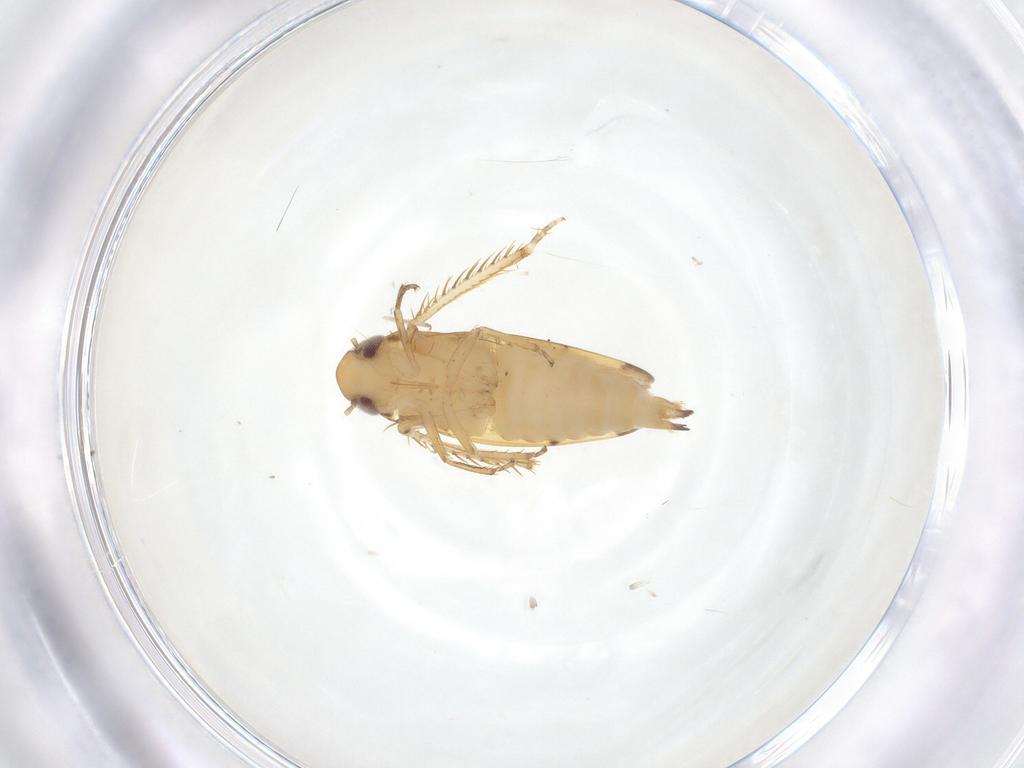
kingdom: Animalia
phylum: Arthropoda
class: Insecta
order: Hemiptera
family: Cicadellidae
